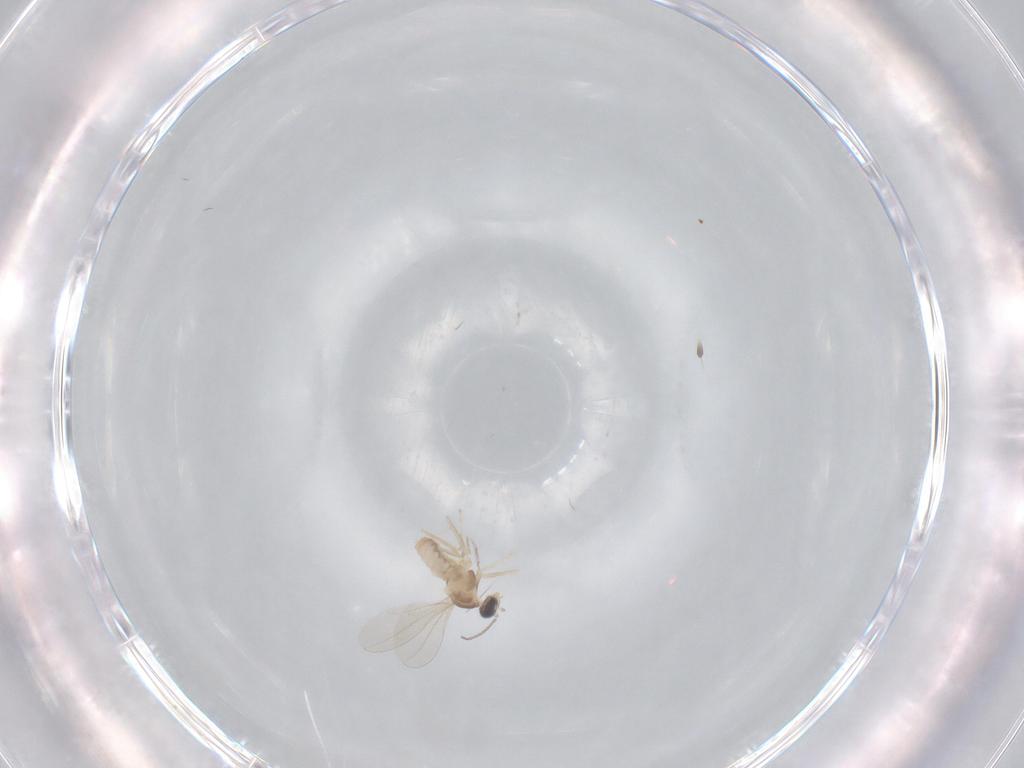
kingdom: Animalia
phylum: Arthropoda
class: Insecta
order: Diptera
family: Cecidomyiidae
